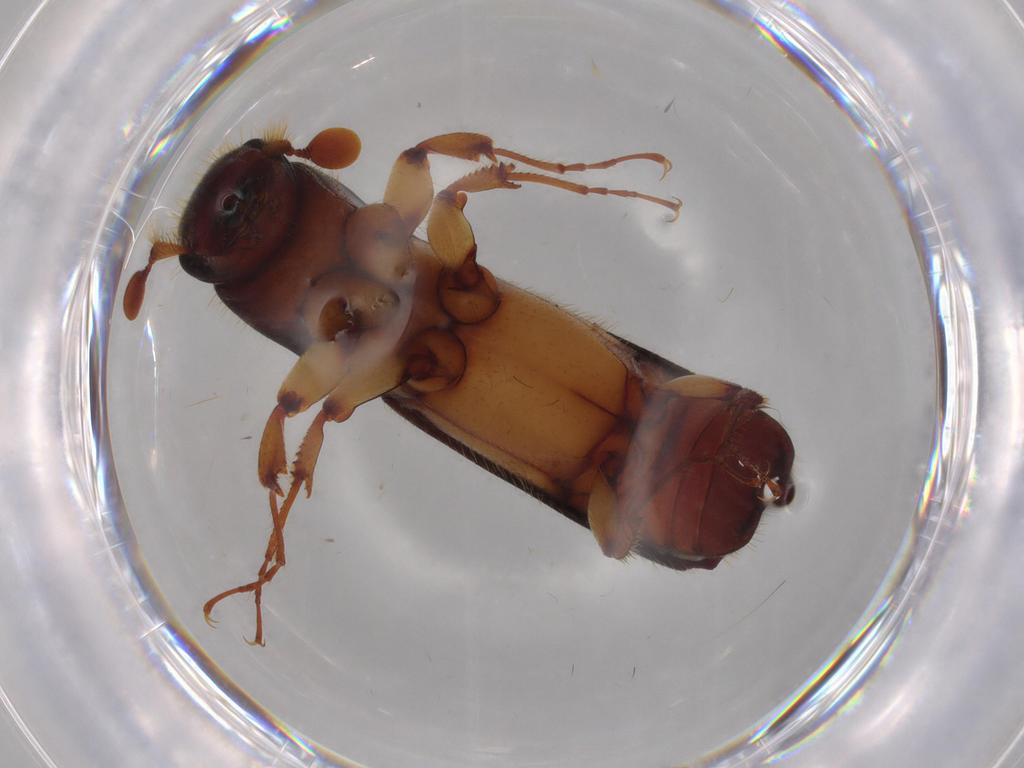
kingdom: Animalia
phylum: Arthropoda
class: Insecta
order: Coleoptera
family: Curculionidae
